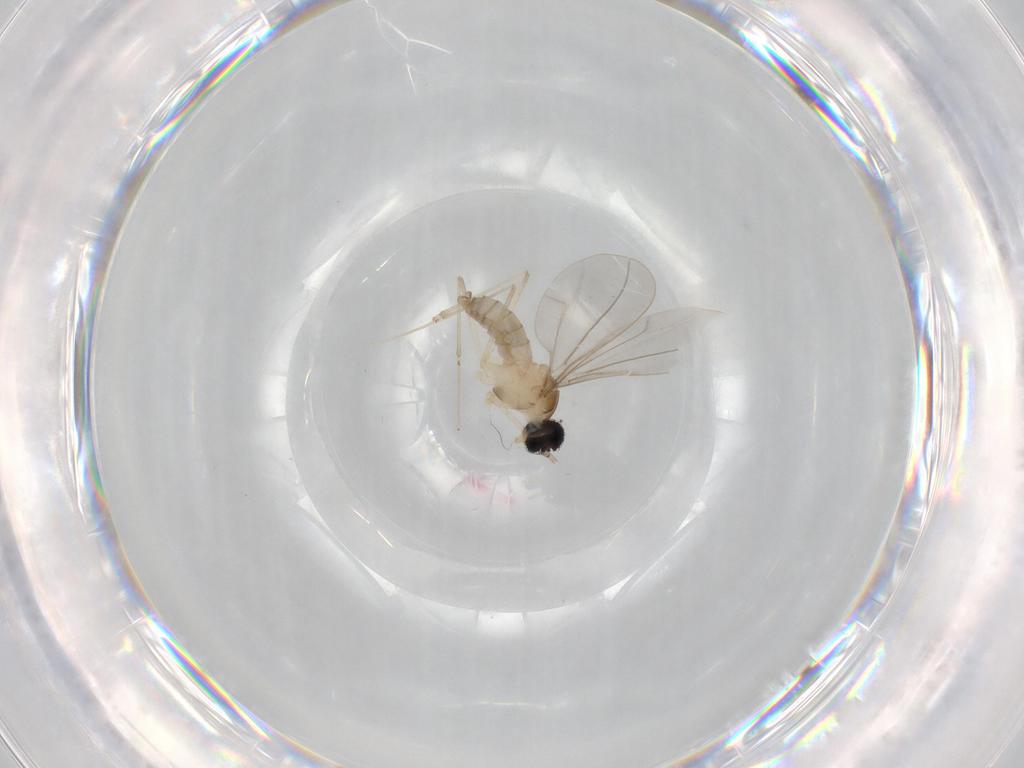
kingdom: Animalia
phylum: Arthropoda
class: Insecta
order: Diptera
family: Cecidomyiidae
